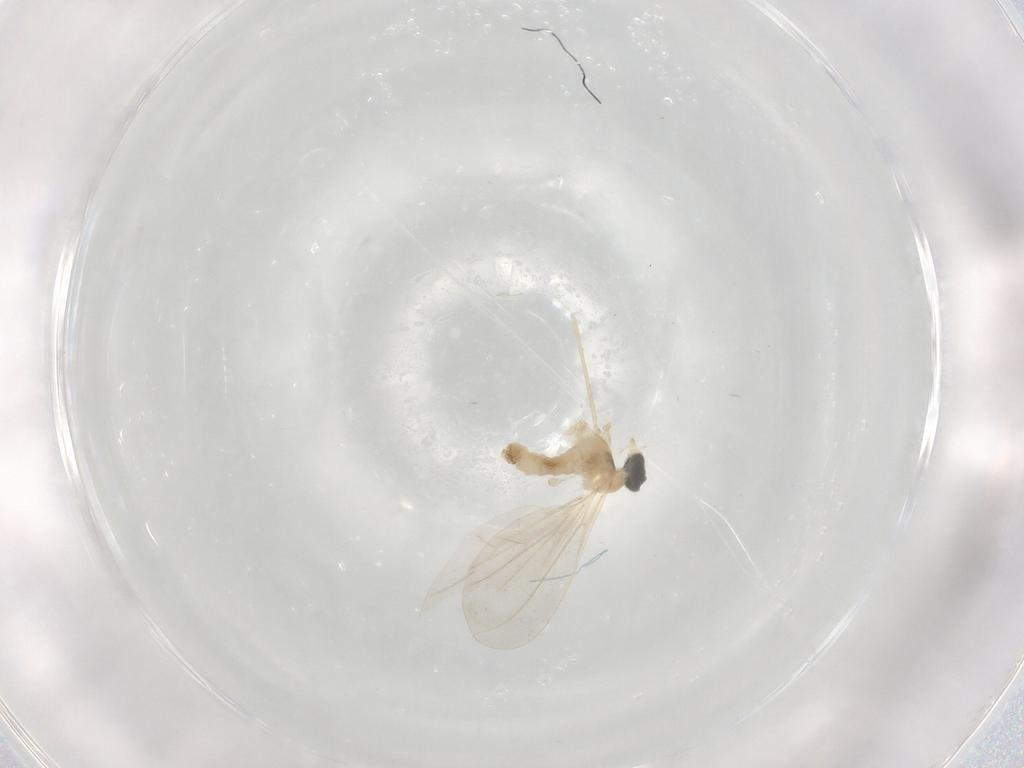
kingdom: Animalia
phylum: Arthropoda
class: Insecta
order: Diptera
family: Cecidomyiidae
